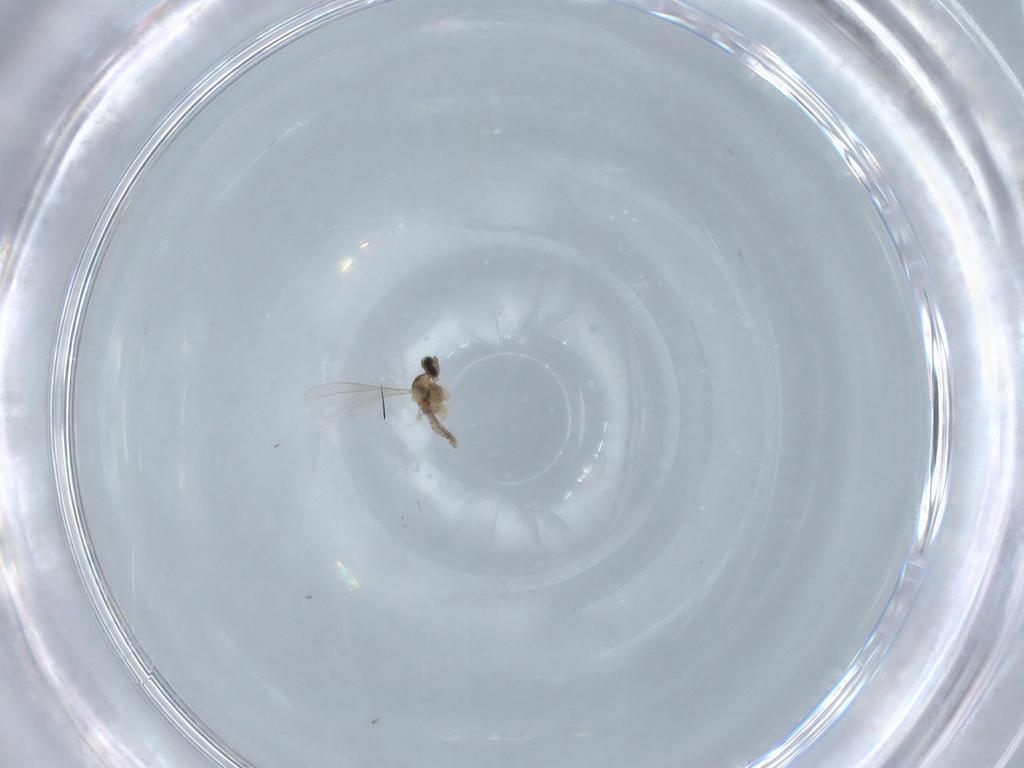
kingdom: Animalia
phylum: Arthropoda
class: Insecta
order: Diptera
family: Cecidomyiidae
